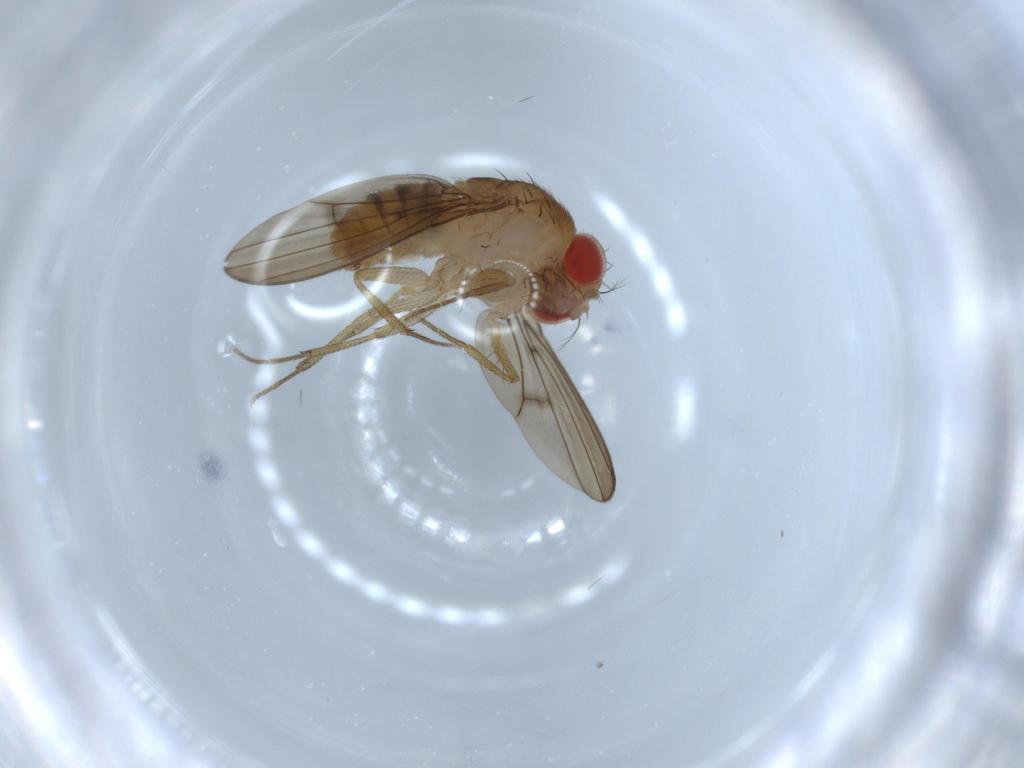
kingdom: Animalia
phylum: Arthropoda
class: Insecta
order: Diptera
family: Drosophilidae
